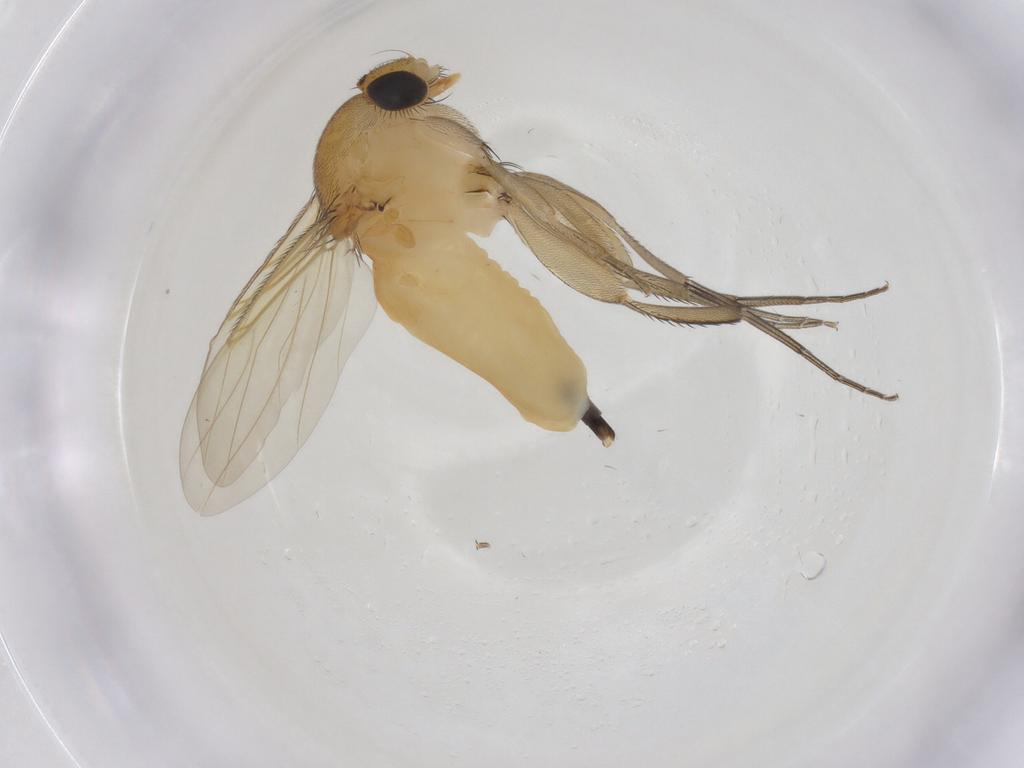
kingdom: Animalia
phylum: Arthropoda
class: Insecta
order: Diptera
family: Phoridae
